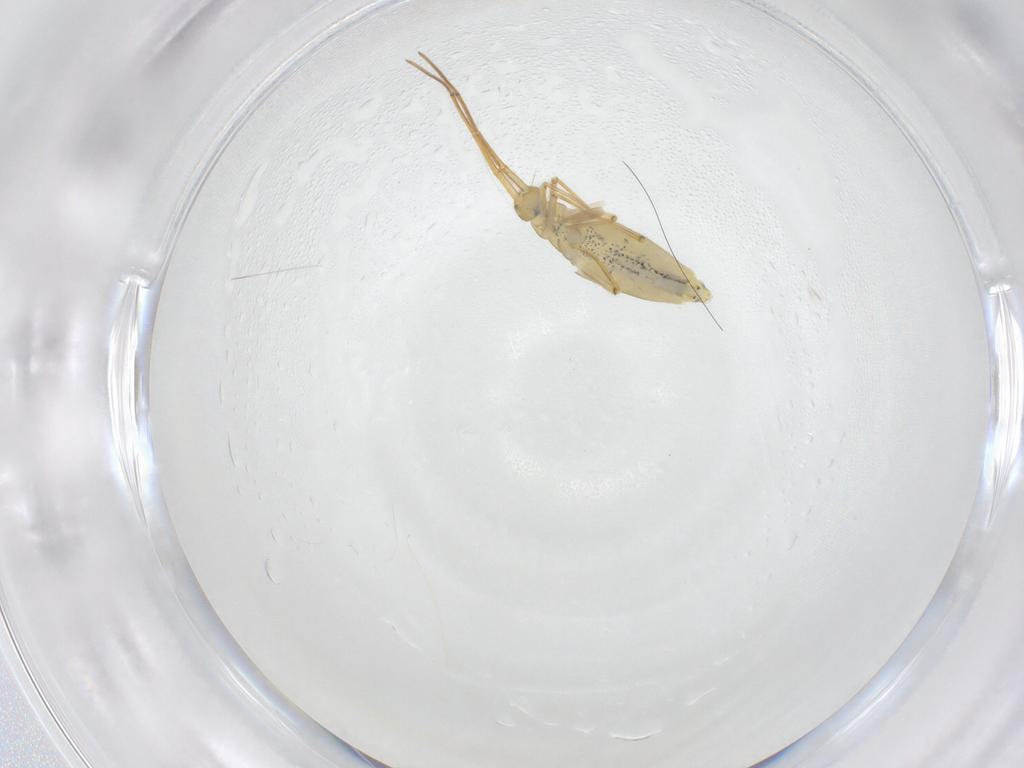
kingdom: Animalia
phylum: Arthropoda
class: Collembola
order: Entomobryomorpha
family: Entomobryidae
